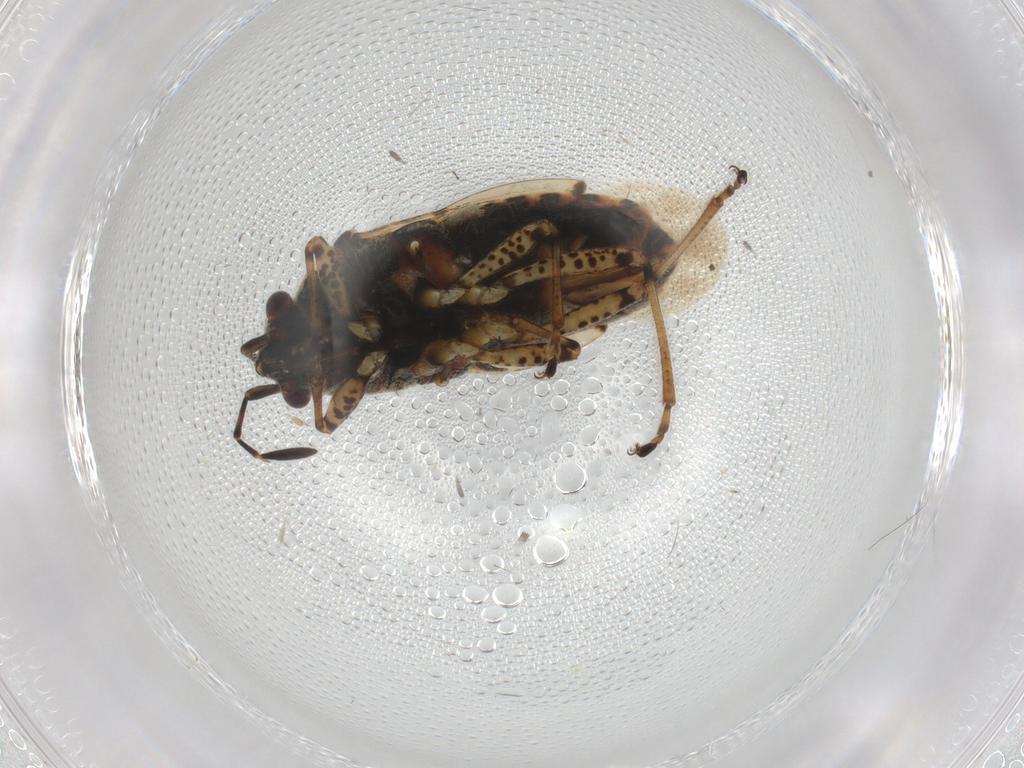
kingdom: Animalia
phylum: Arthropoda
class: Insecta
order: Hemiptera
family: Lygaeidae
